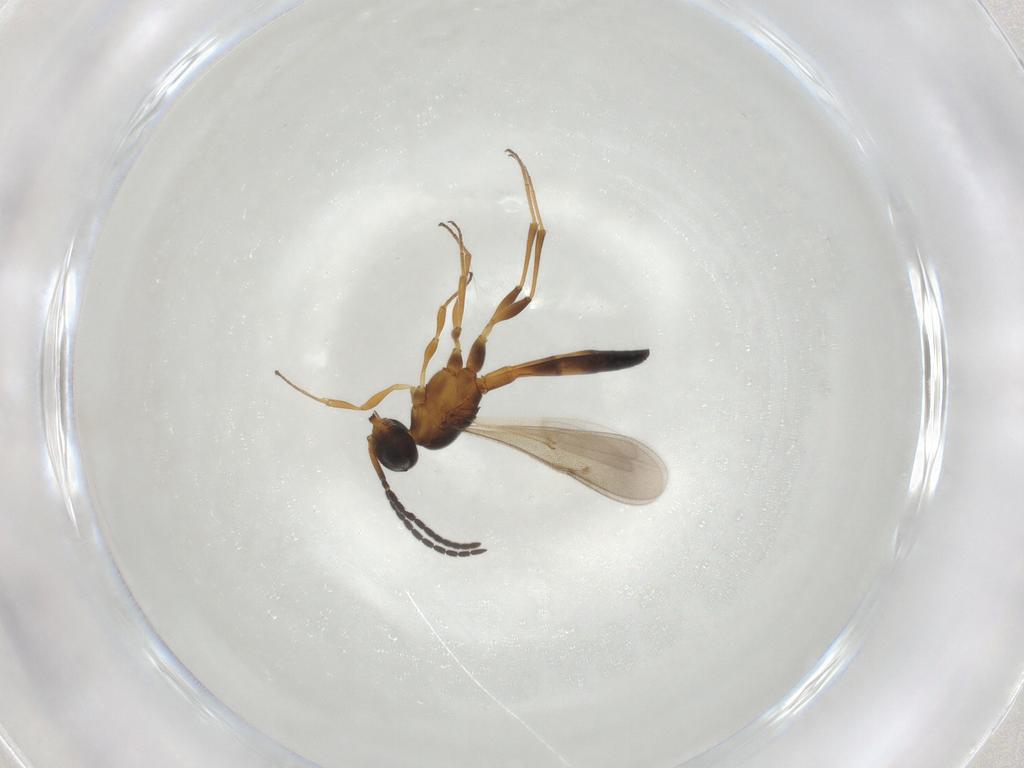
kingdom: Animalia
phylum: Arthropoda
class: Insecta
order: Hymenoptera
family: Scelionidae
